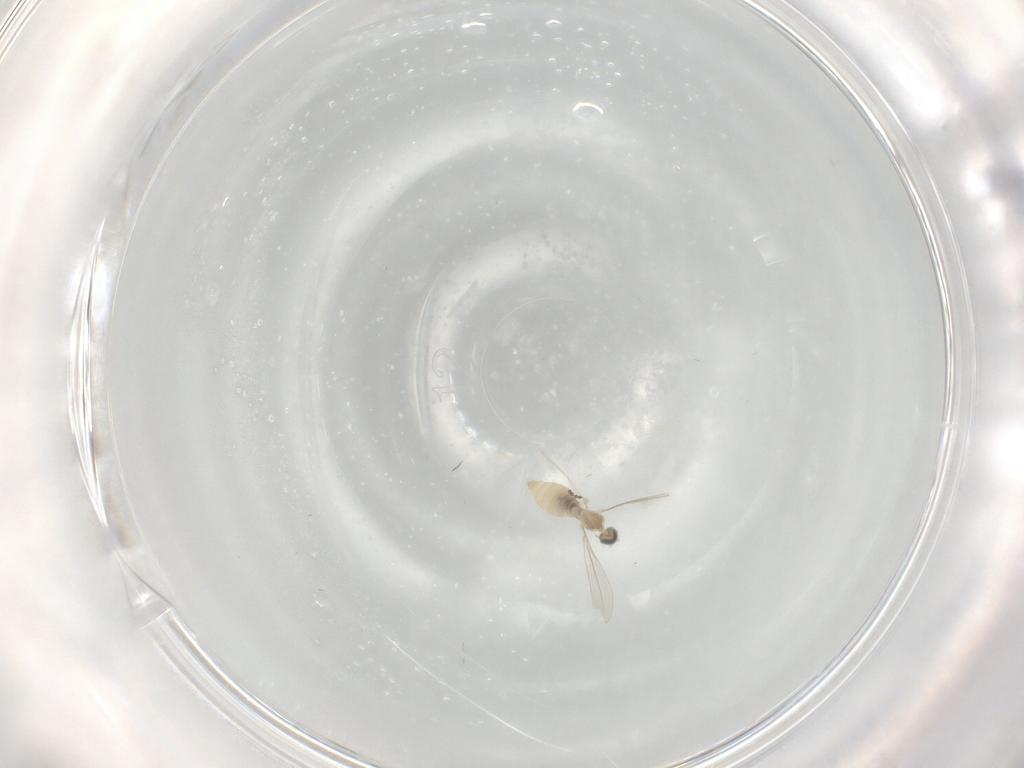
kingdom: Animalia
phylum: Arthropoda
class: Insecta
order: Diptera
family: Cecidomyiidae
